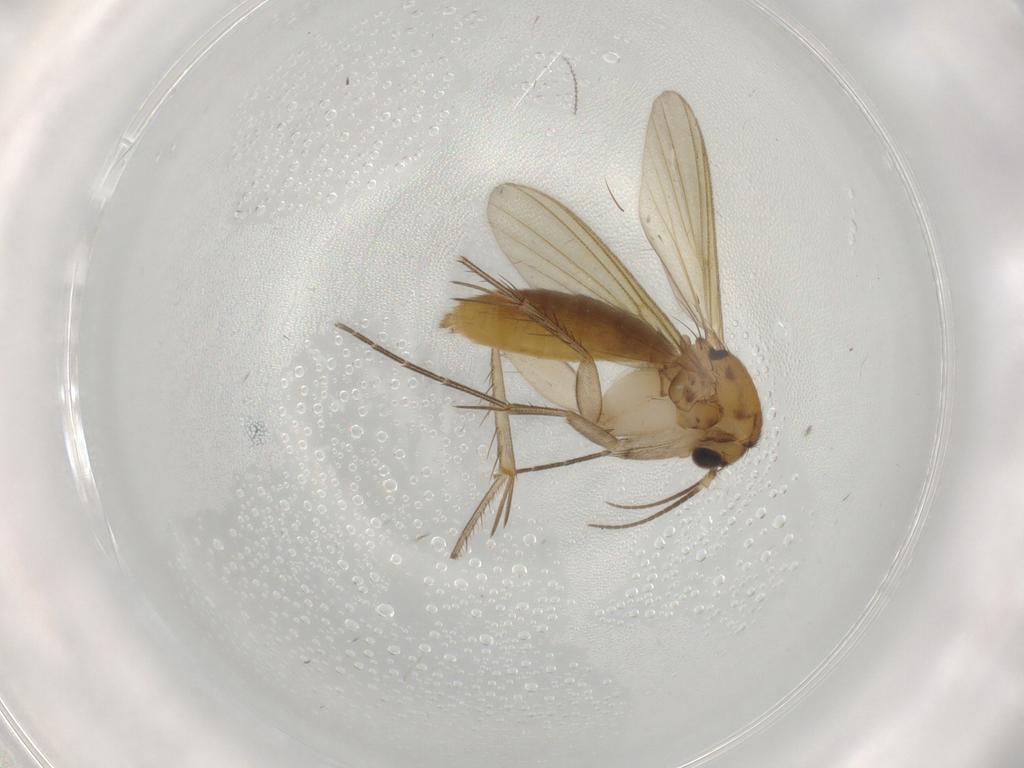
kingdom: Animalia
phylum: Arthropoda
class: Insecta
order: Diptera
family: Mycetophilidae
